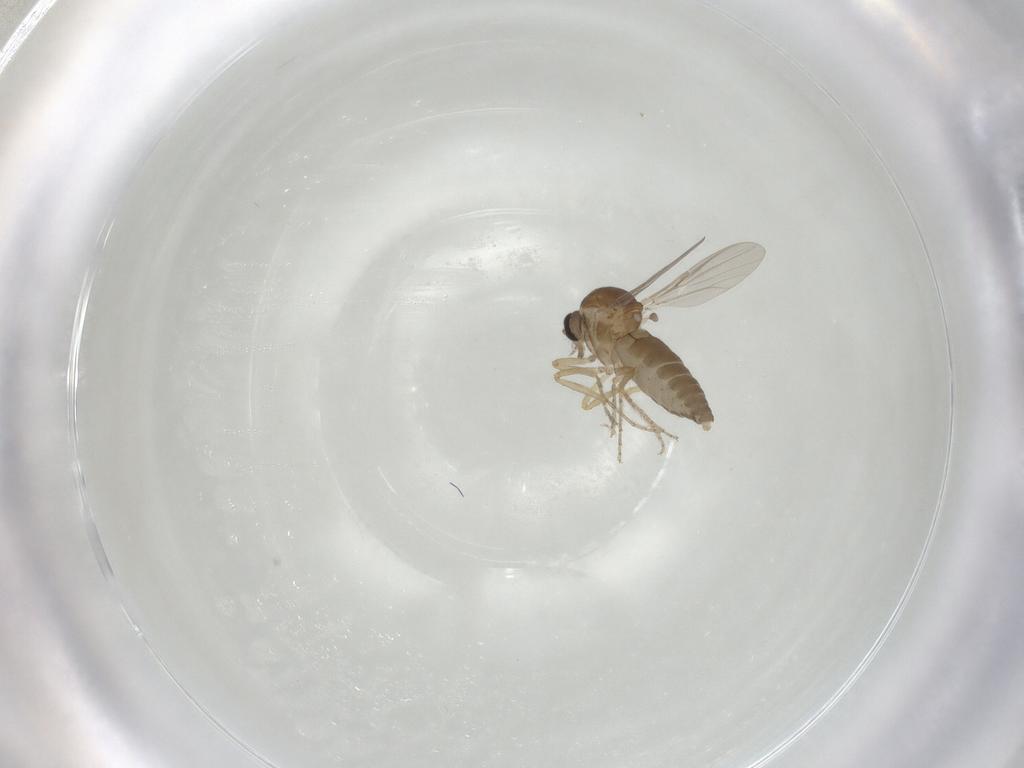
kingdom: Animalia
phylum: Arthropoda
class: Insecta
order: Diptera
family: Ceratopogonidae
